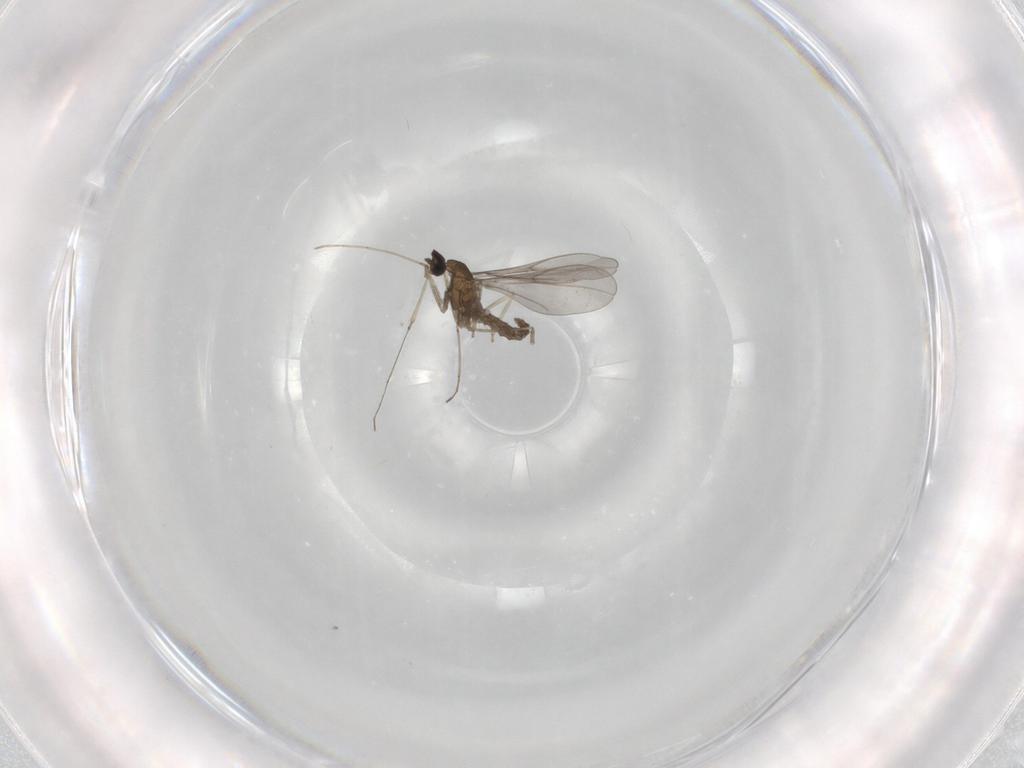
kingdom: Animalia
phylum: Arthropoda
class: Insecta
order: Diptera
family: Cecidomyiidae
